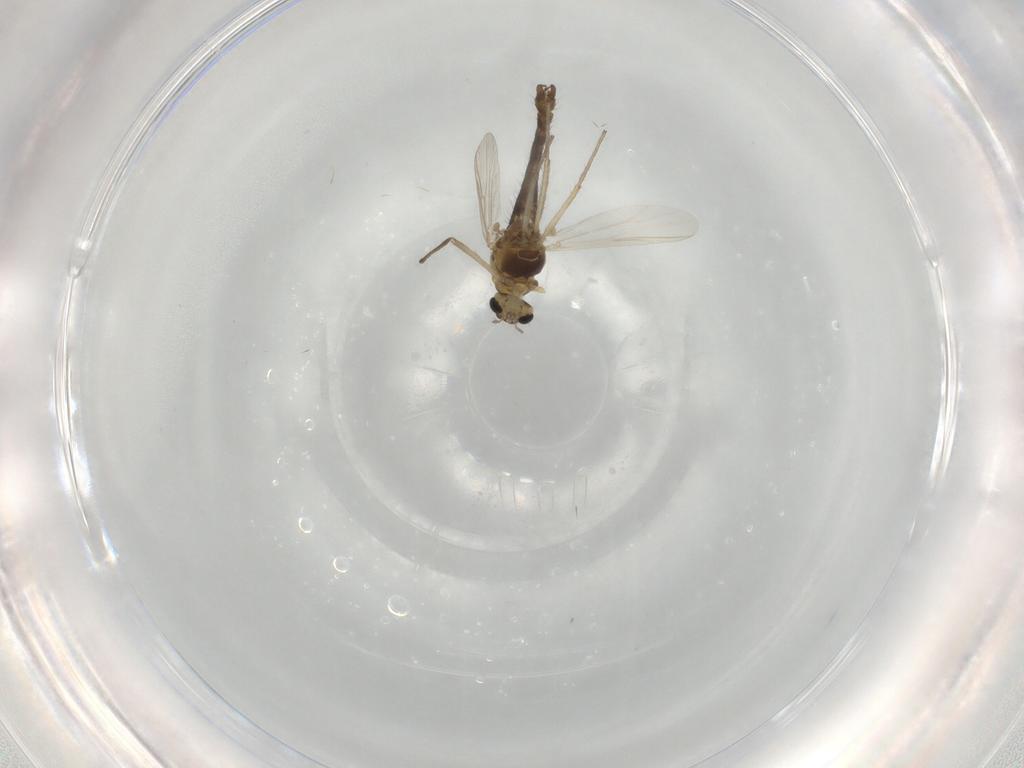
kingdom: Animalia
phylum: Arthropoda
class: Insecta
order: Diptera
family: Chironomidae
